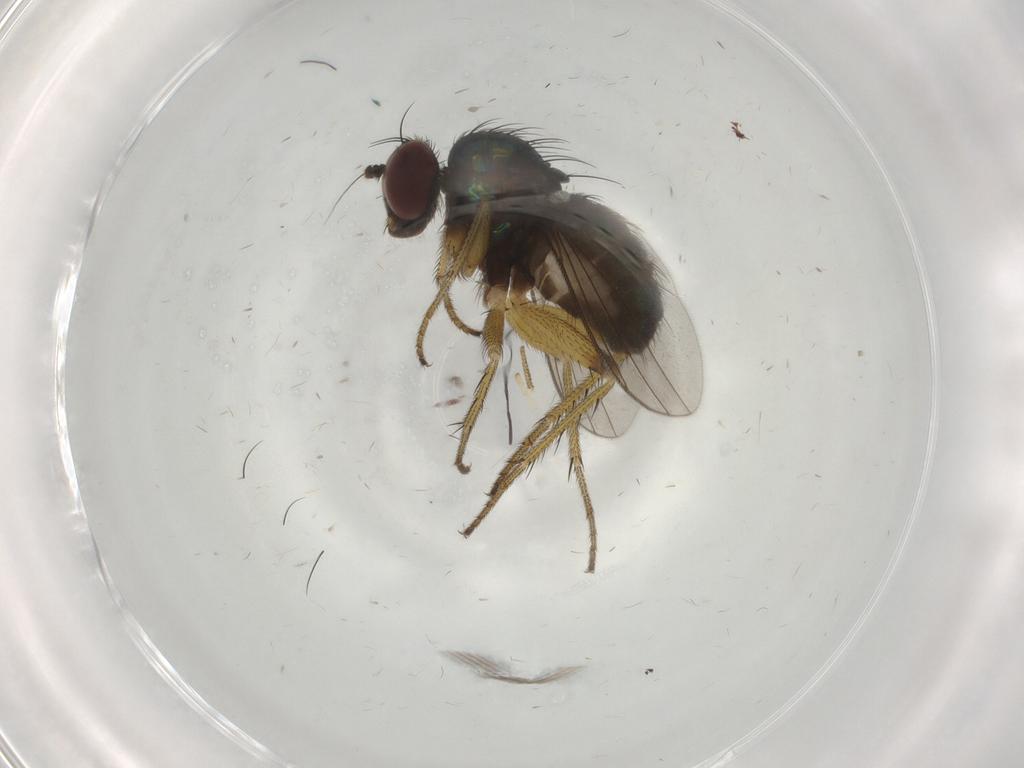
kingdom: Animalia
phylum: Arthropoda
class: Insecta
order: Diptera
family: Dolichopodidae
